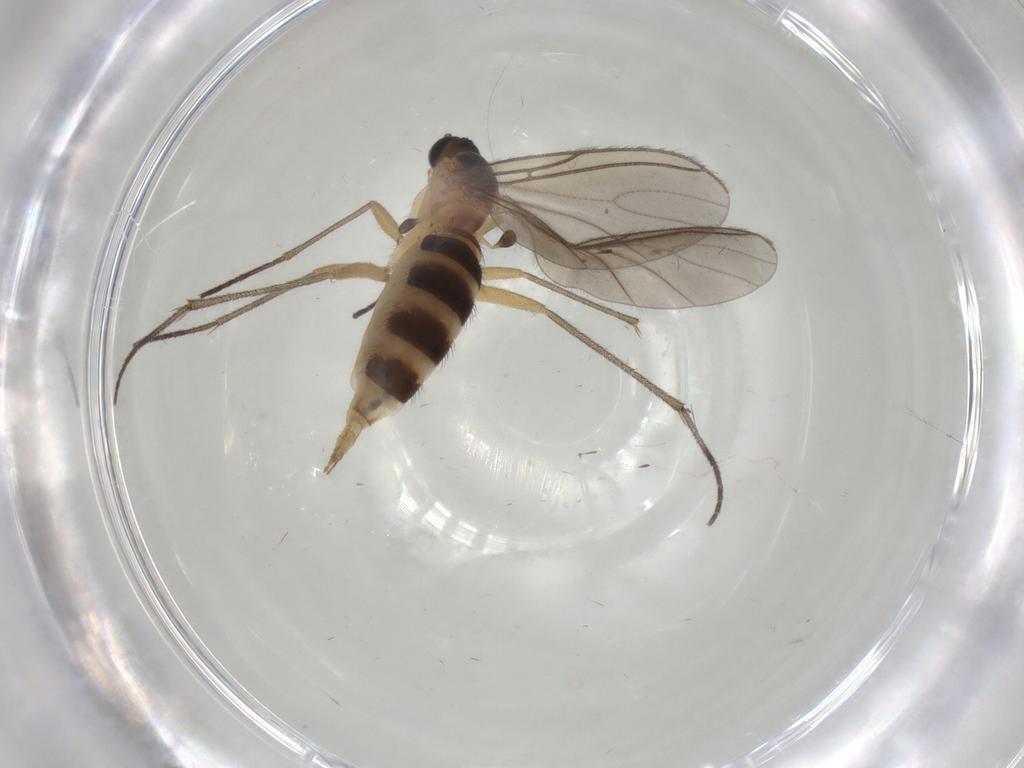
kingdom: Animalia
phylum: Arthropoda
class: Insecta
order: Diptera
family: Sciaridae
